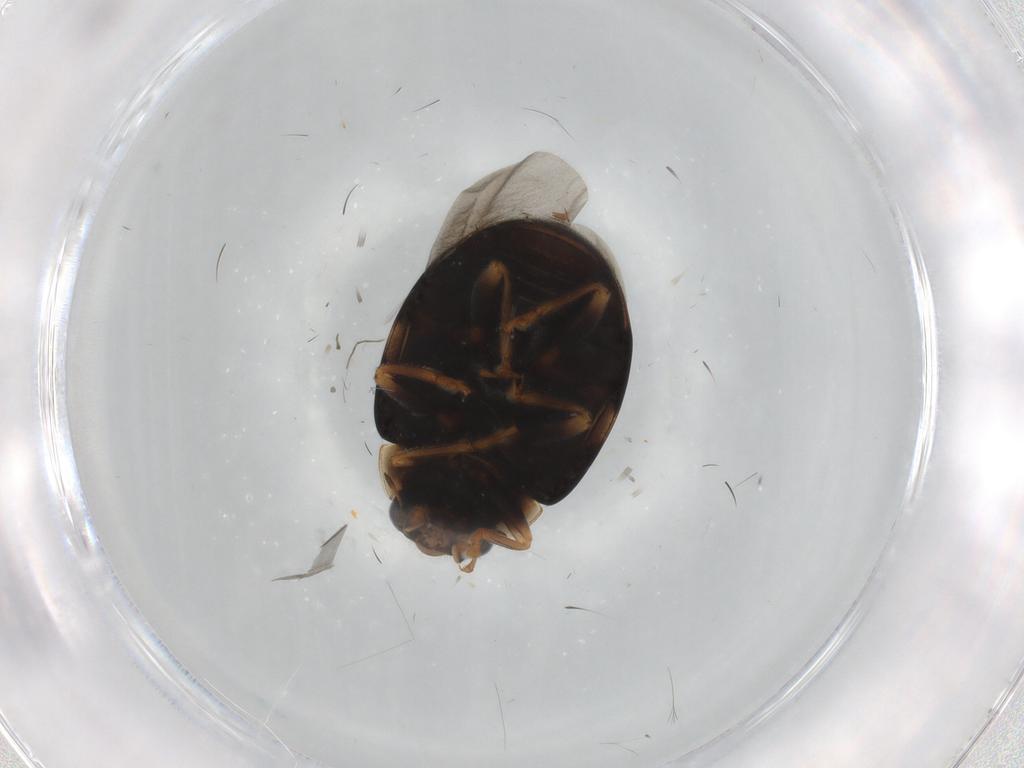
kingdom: Animalia
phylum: Arthropoda
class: Insecta
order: Coleoptera
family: Coccinellidae
